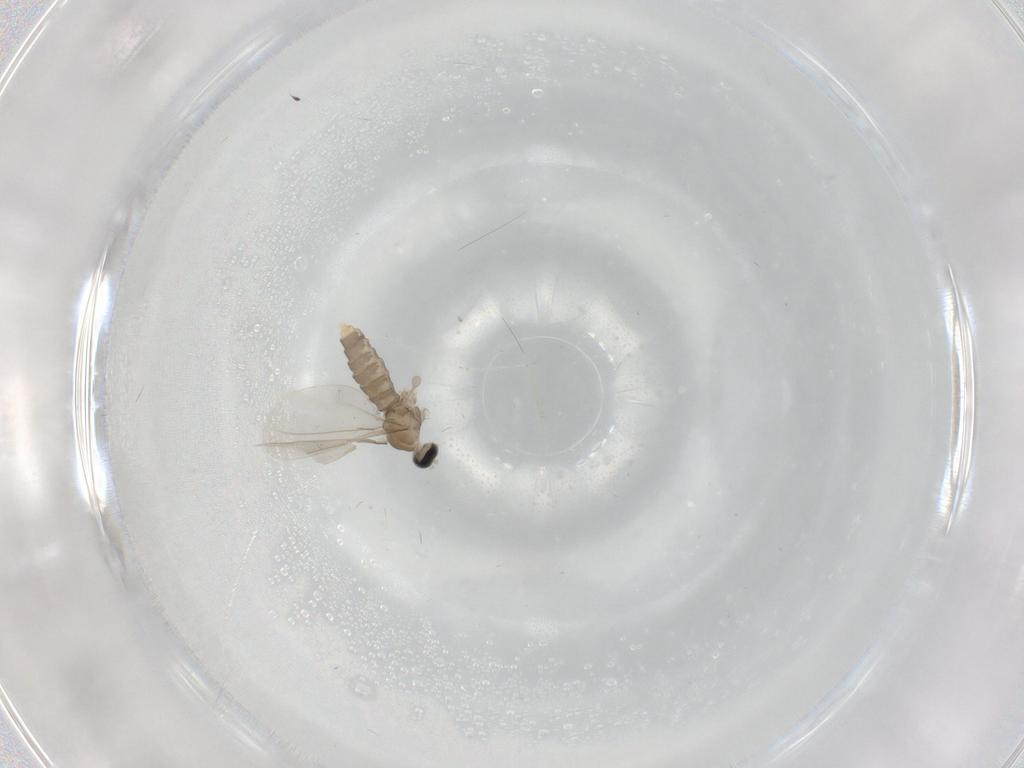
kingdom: Animalia
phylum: Arthropoda
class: Insecta
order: Diptera
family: Cecidomyiidae
